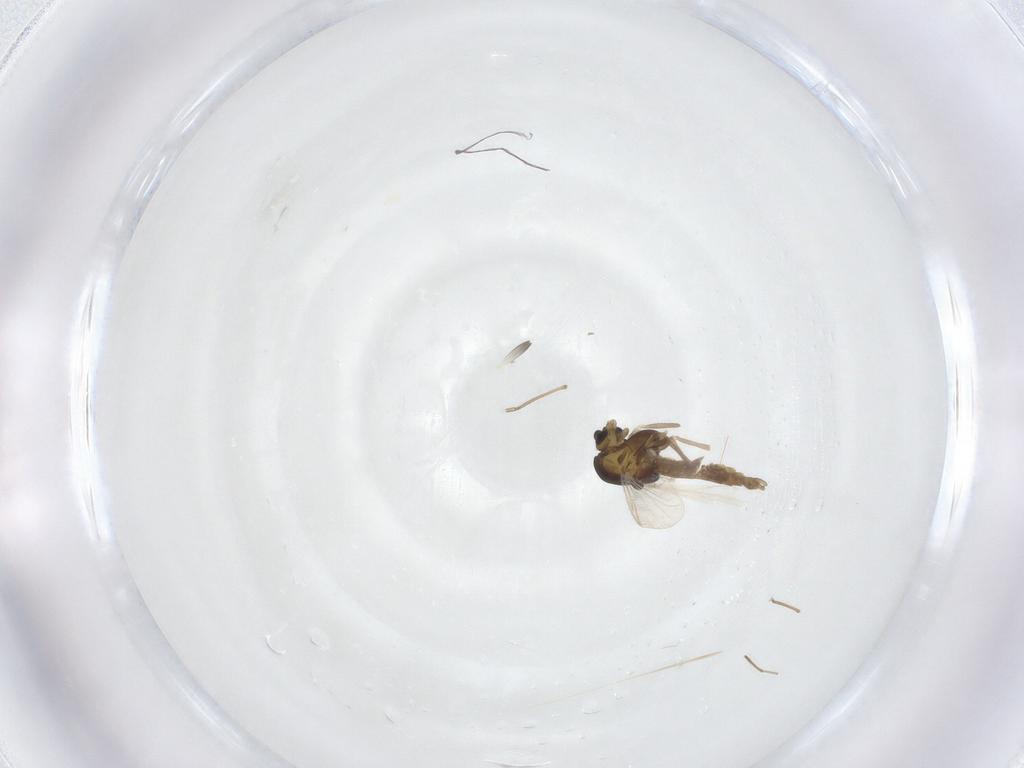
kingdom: Animalia
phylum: Arthropoda
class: Insecta
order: Diptera
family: Chironomidae
